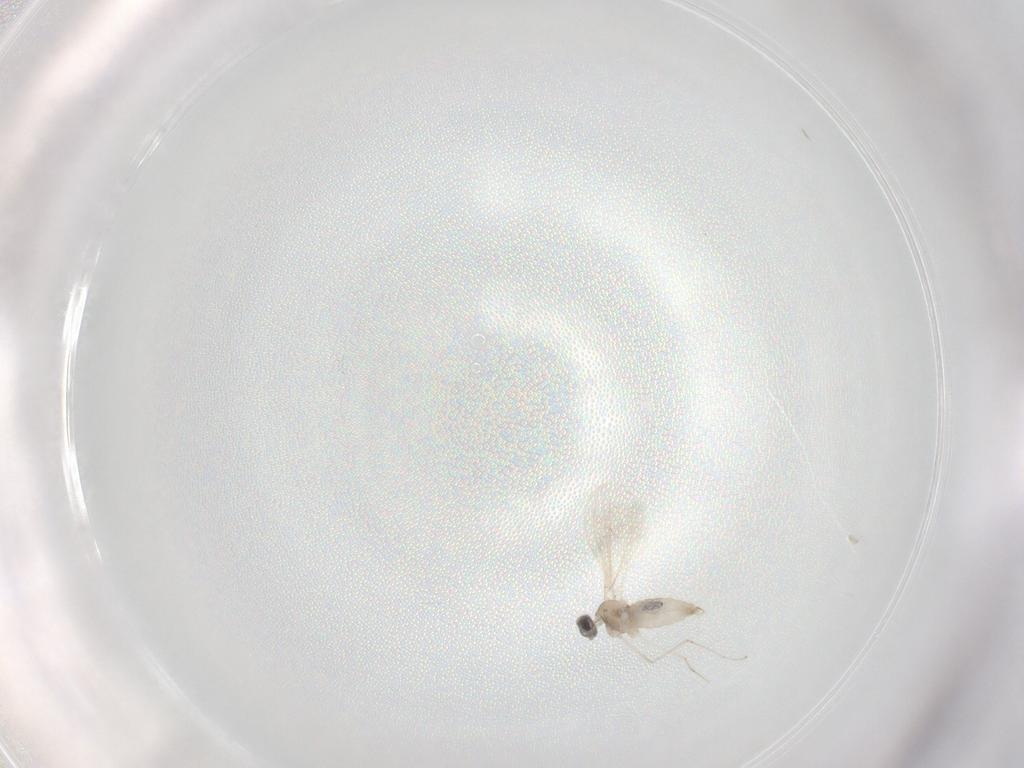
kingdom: Animalia
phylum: Arthropoda
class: Insecta
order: Diptera
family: Cecidomyiidae
